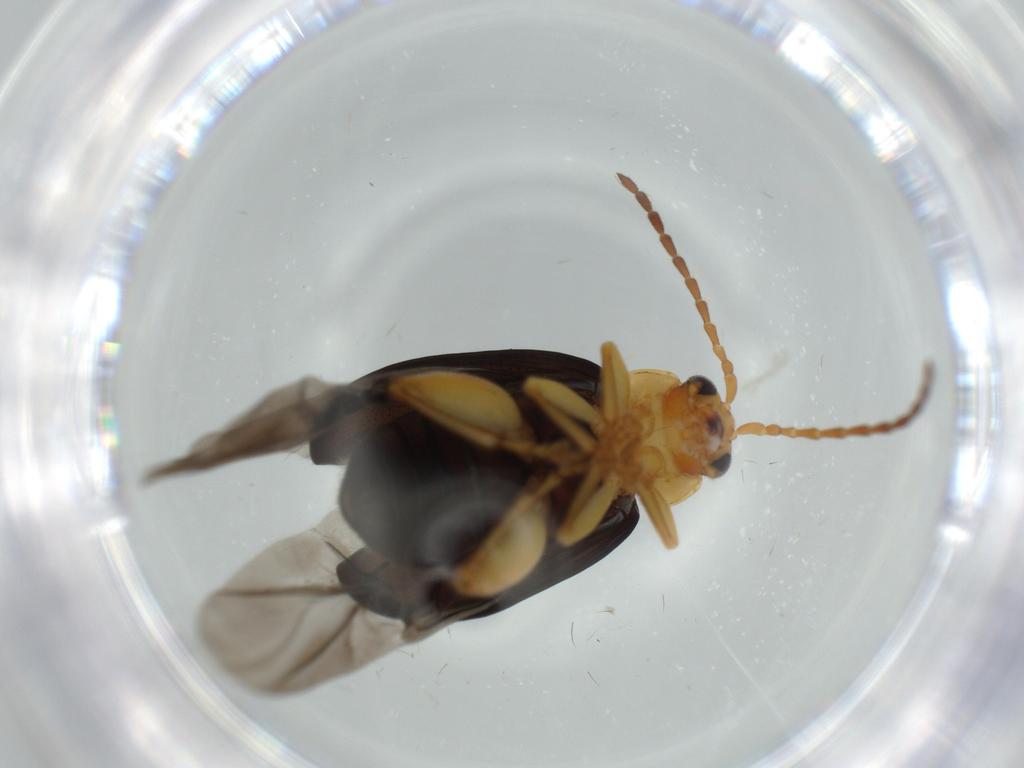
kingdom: Animalia
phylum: Arthropoda
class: Insecta
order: Coleoptera
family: Chrysomelidae
